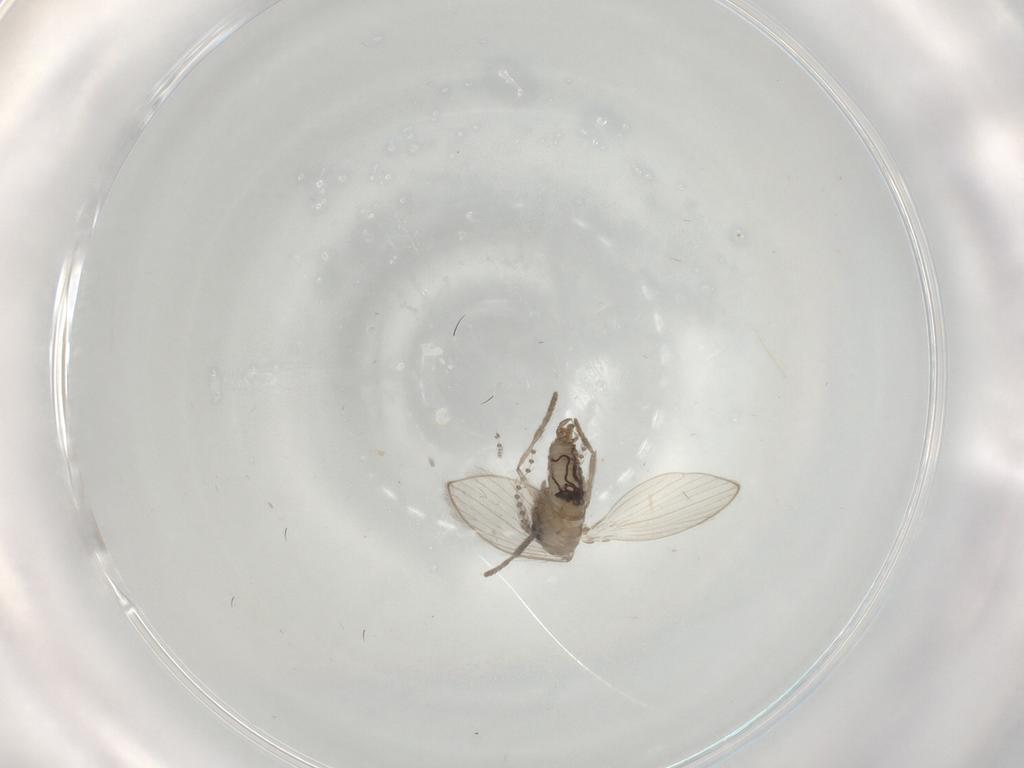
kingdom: Animalia
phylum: Arthropoda
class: Insecta
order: Diptera
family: Psychodidae
